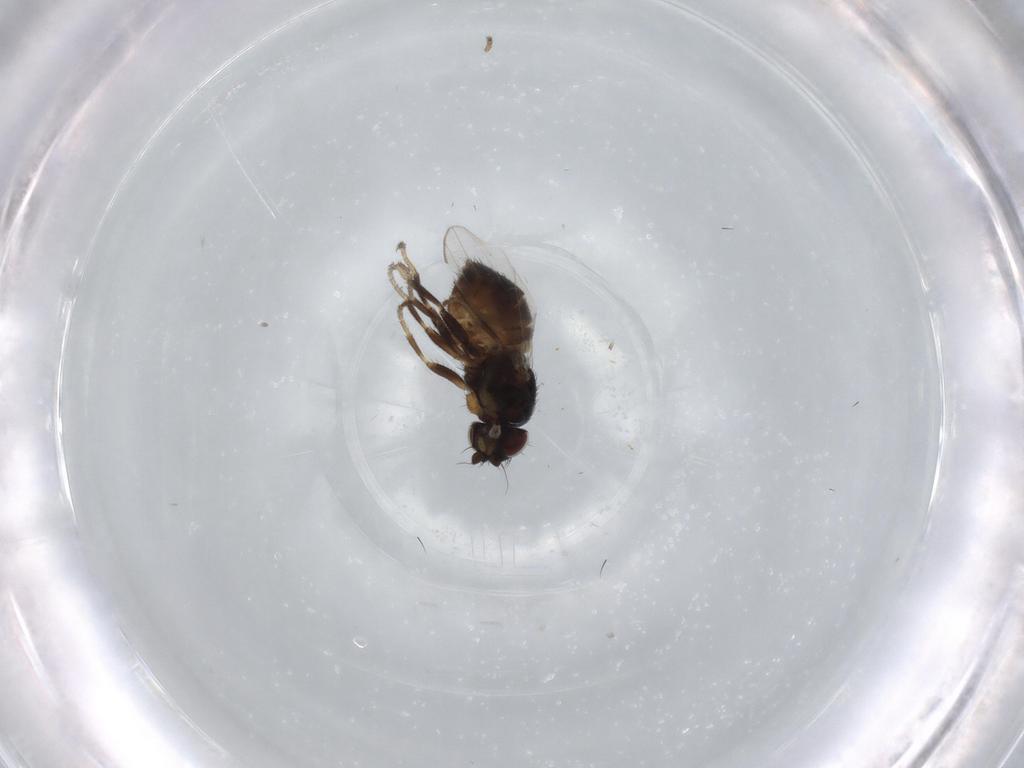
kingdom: Animalia
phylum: Arthropoda
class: Insecta
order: Diptera
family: Milichiidae
